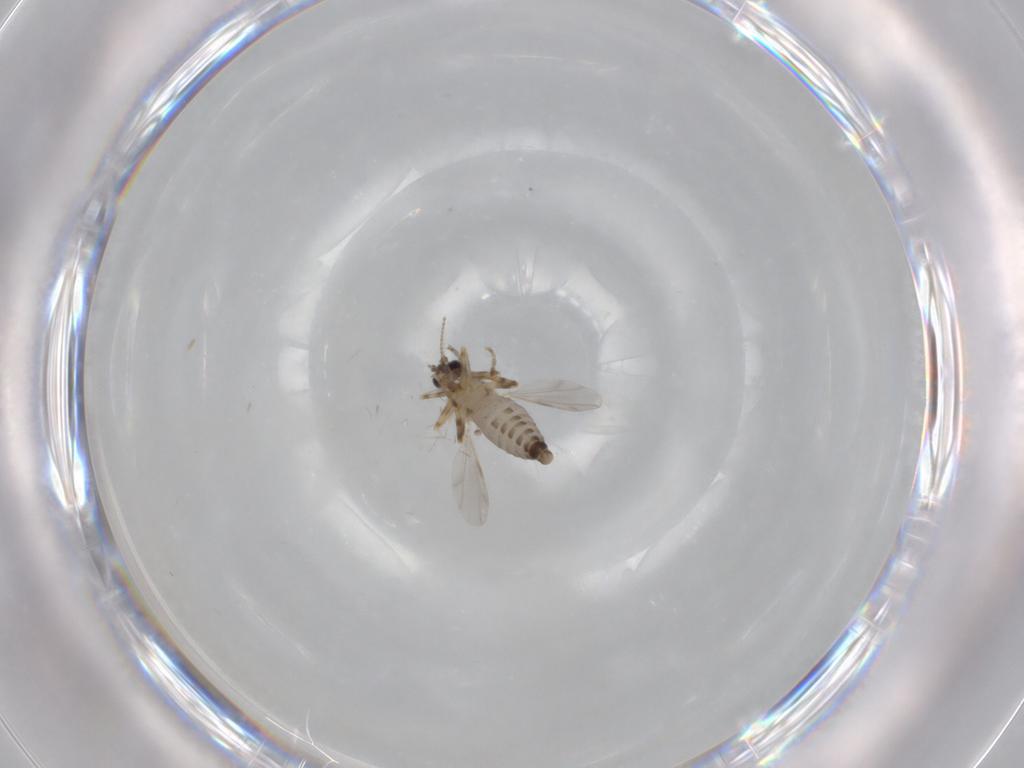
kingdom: Animalia
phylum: Arthropoda
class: Insecta
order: Diptera
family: Ceratopogonidae
